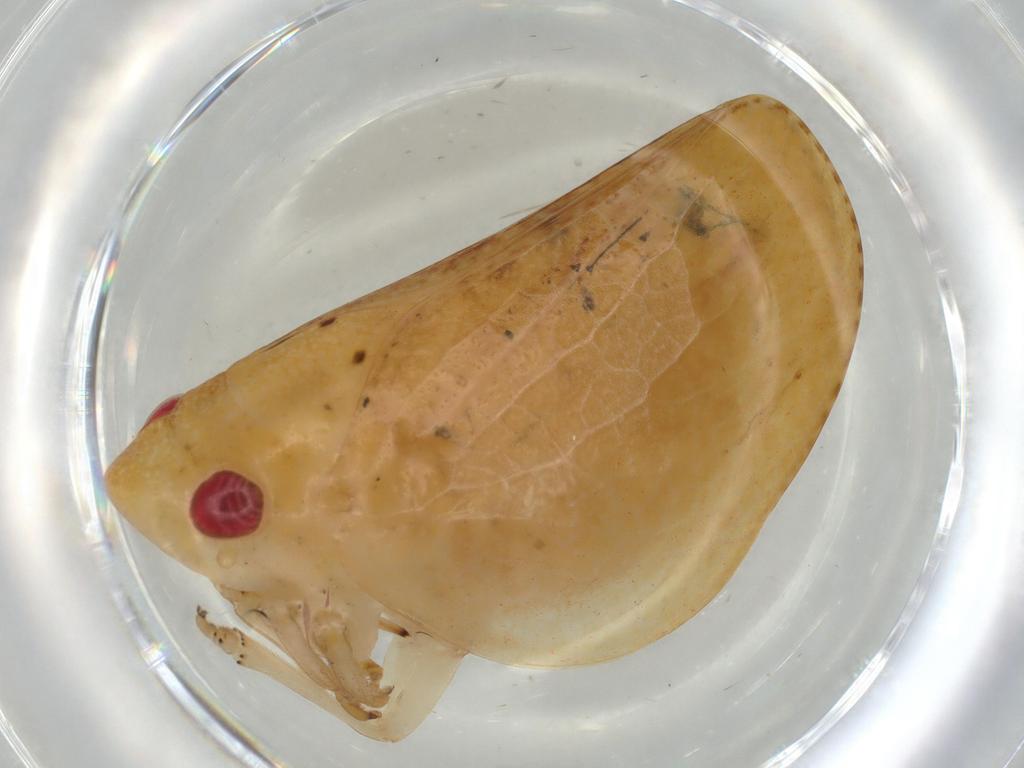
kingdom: Animalia
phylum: Arthropoda
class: Insecta
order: Hemiptera
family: Acanaloniidae
